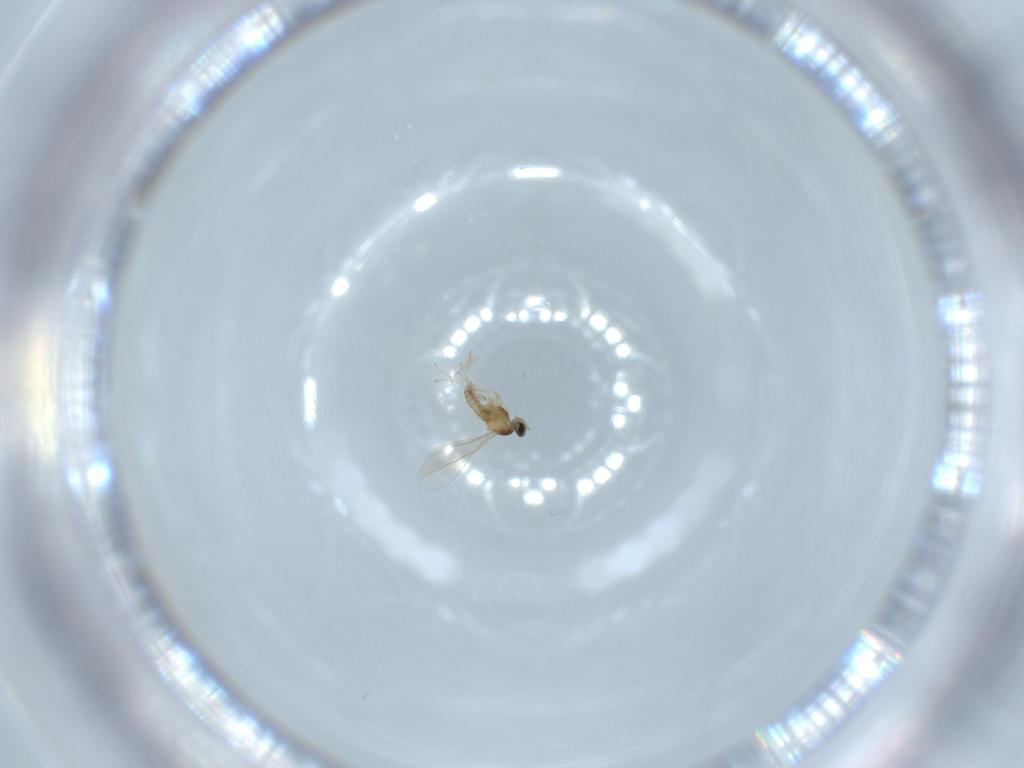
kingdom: Animalia
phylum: Arthropoda
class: Insecta
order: Diptera
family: Cecidomyiidae
